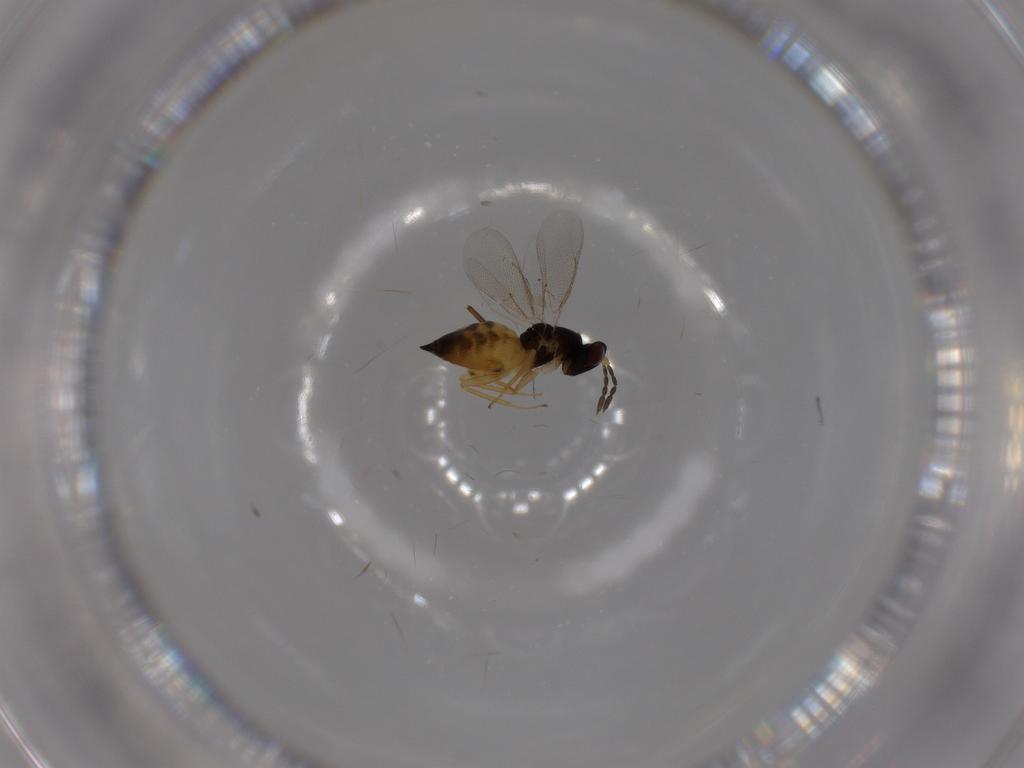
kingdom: Animalia
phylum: Arthropoda
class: Insecta
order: Hymenoptera
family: Eulophidae
